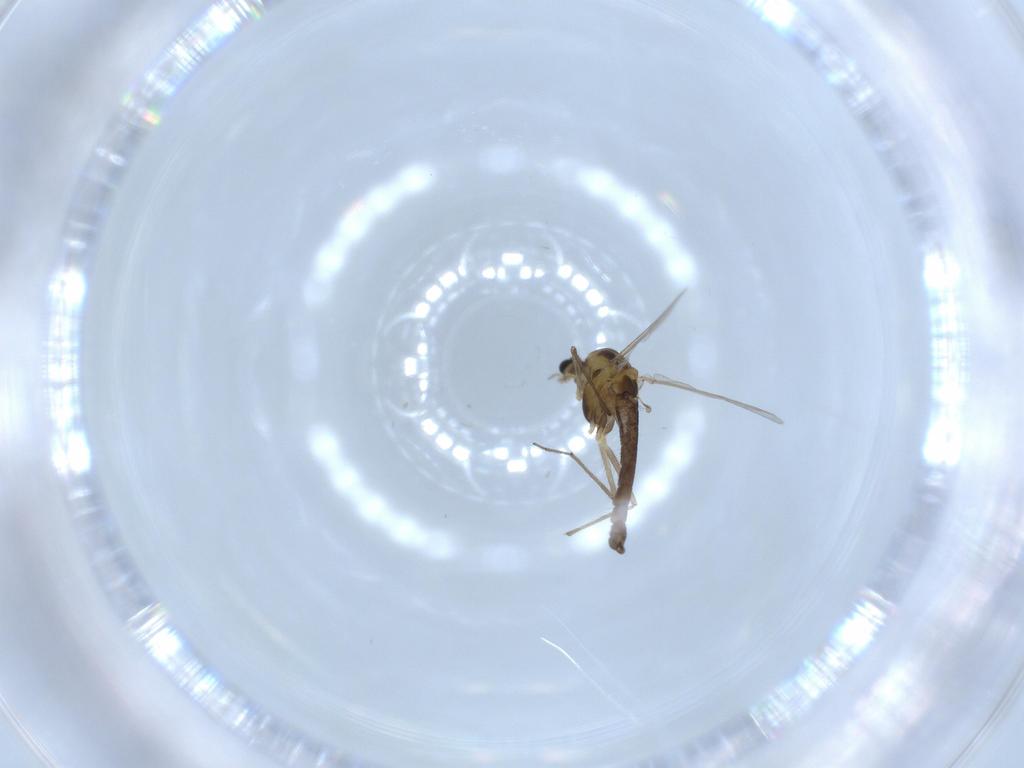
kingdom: Animalia
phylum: Arthropoda
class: Insecta
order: Diptera
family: Chironomidae
